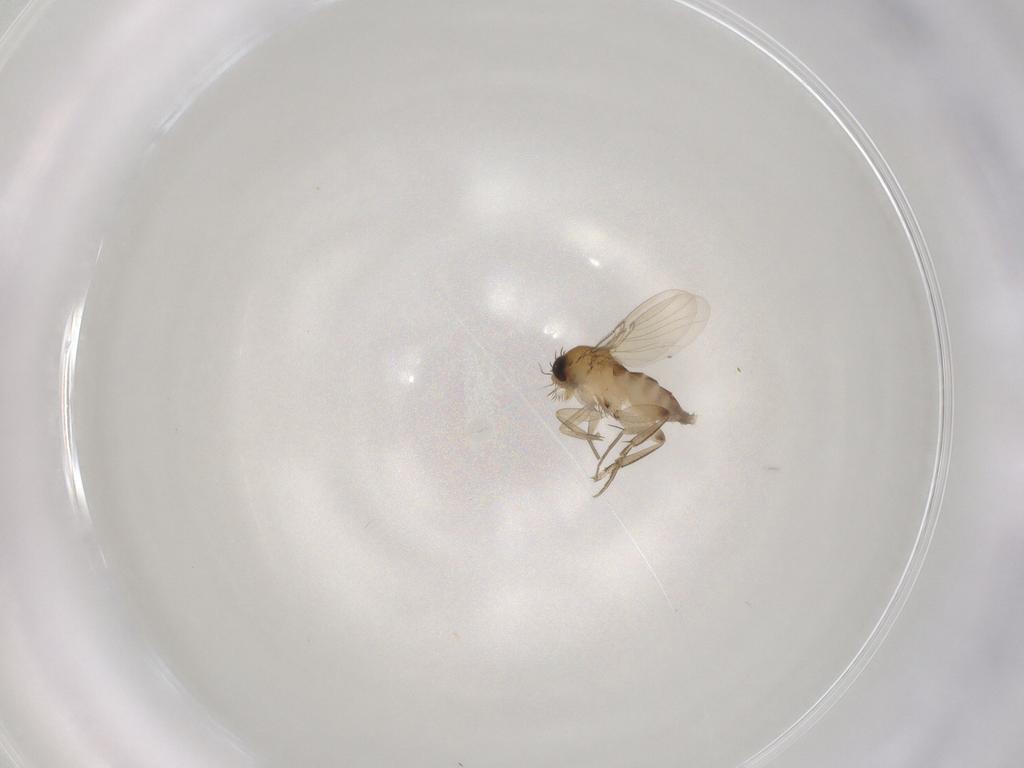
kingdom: Animalia
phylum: Arthropoda
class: Insecta
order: Diptera
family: Phoridae
